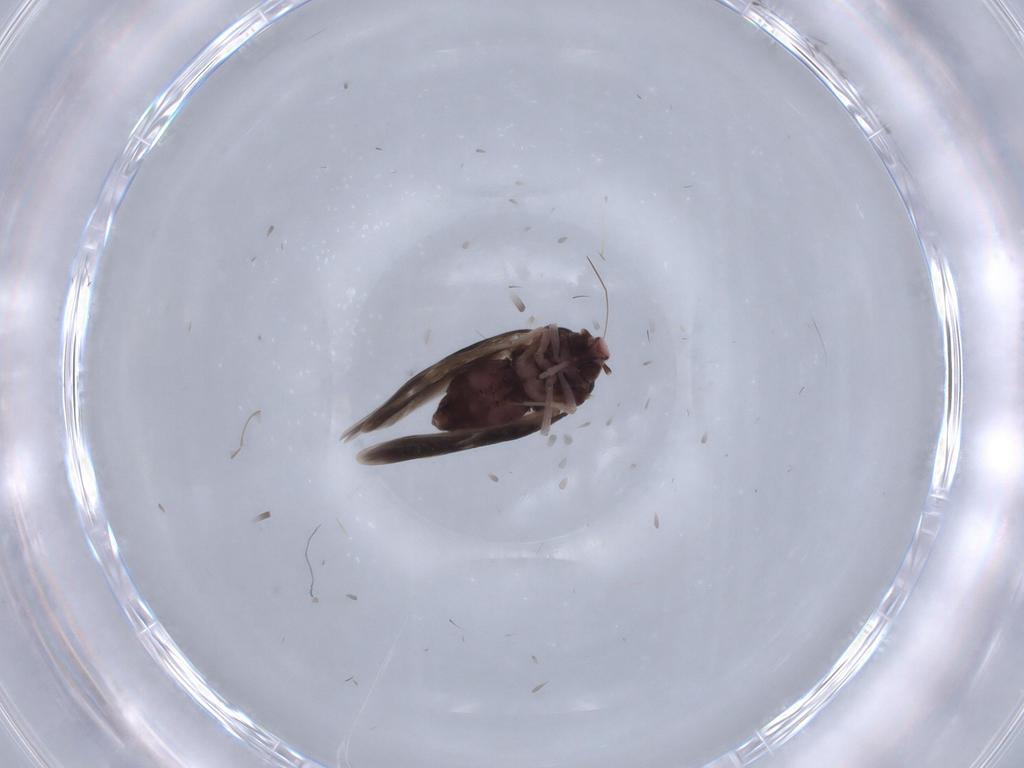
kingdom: Animalia
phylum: Arthropoda
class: Insecta
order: Hemiptera
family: Aleyrodidae
